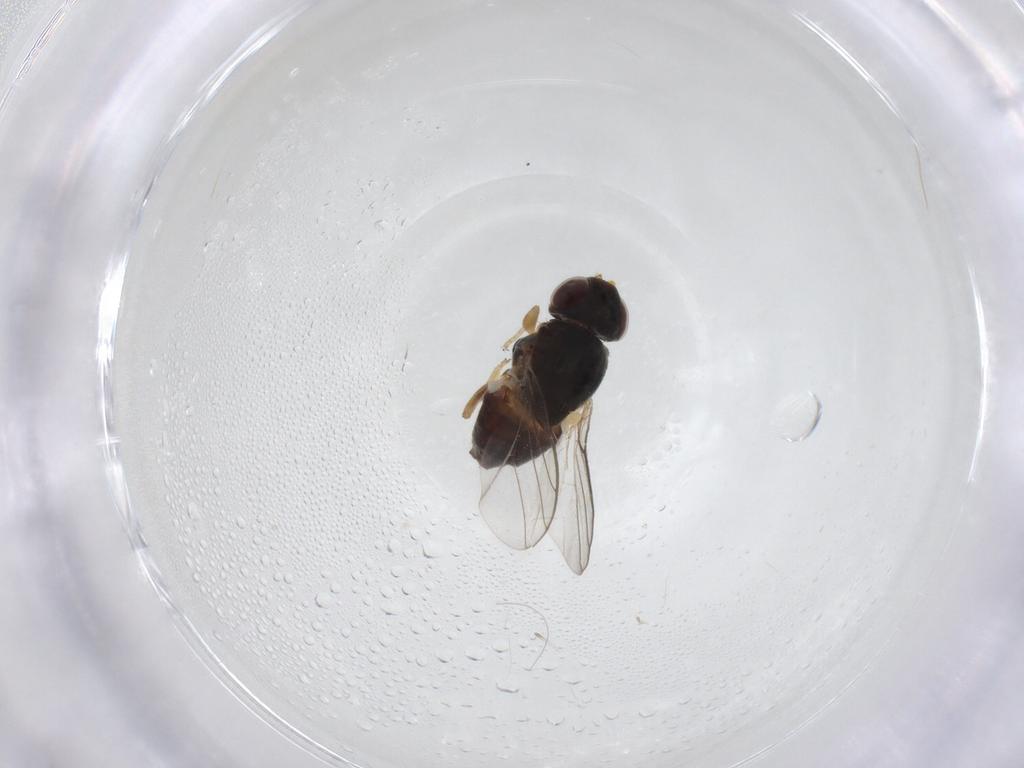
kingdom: Animalia
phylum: Arthropoda
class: Insecta
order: Diptera
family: Chloropidae
